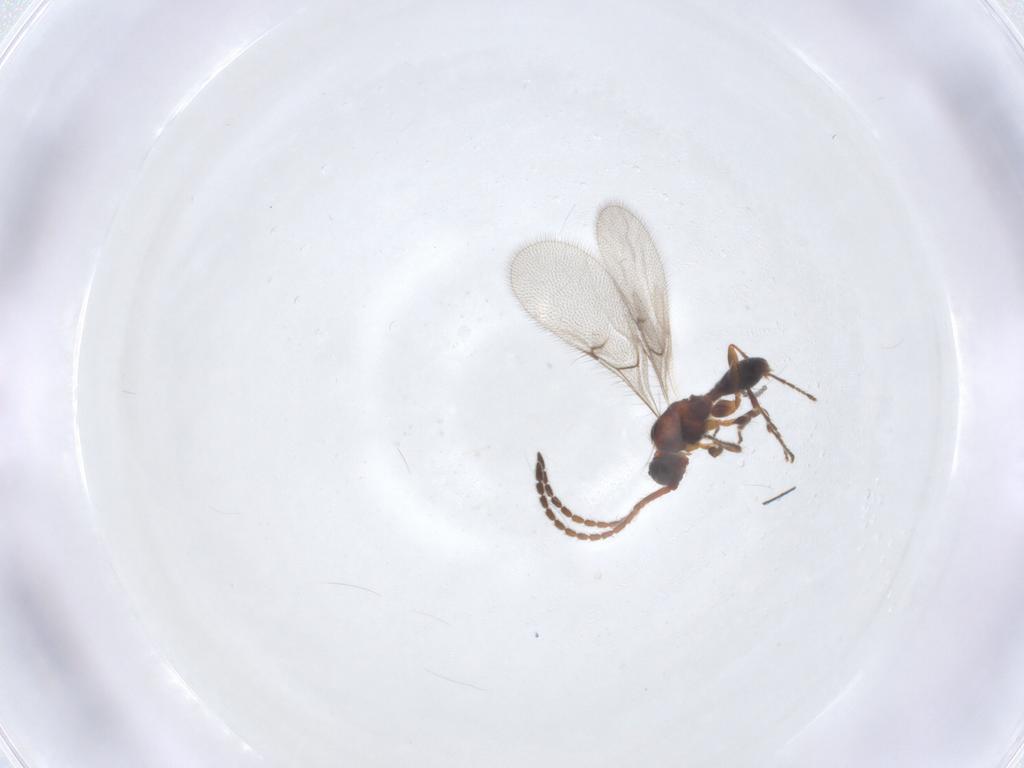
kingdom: Animalia
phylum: Arthropoda
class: Insecta
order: Hymenoptera
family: Diapriidae
